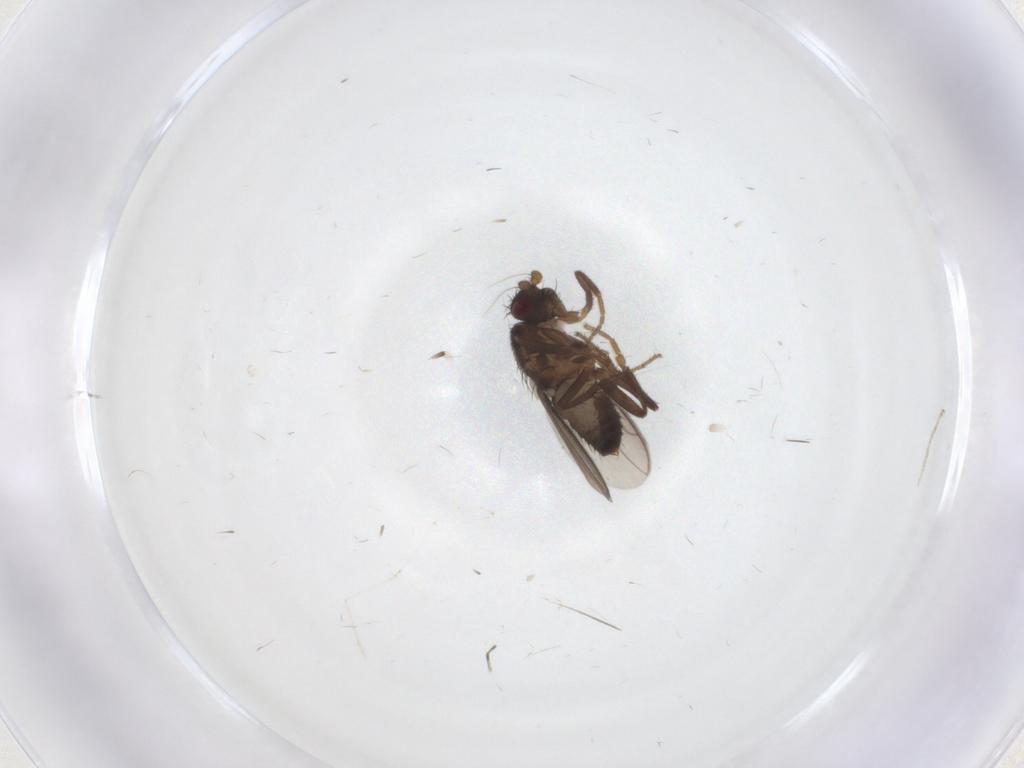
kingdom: Animalia
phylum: Arthropoda
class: Insecta
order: Diptera
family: Sphaeroceridae
